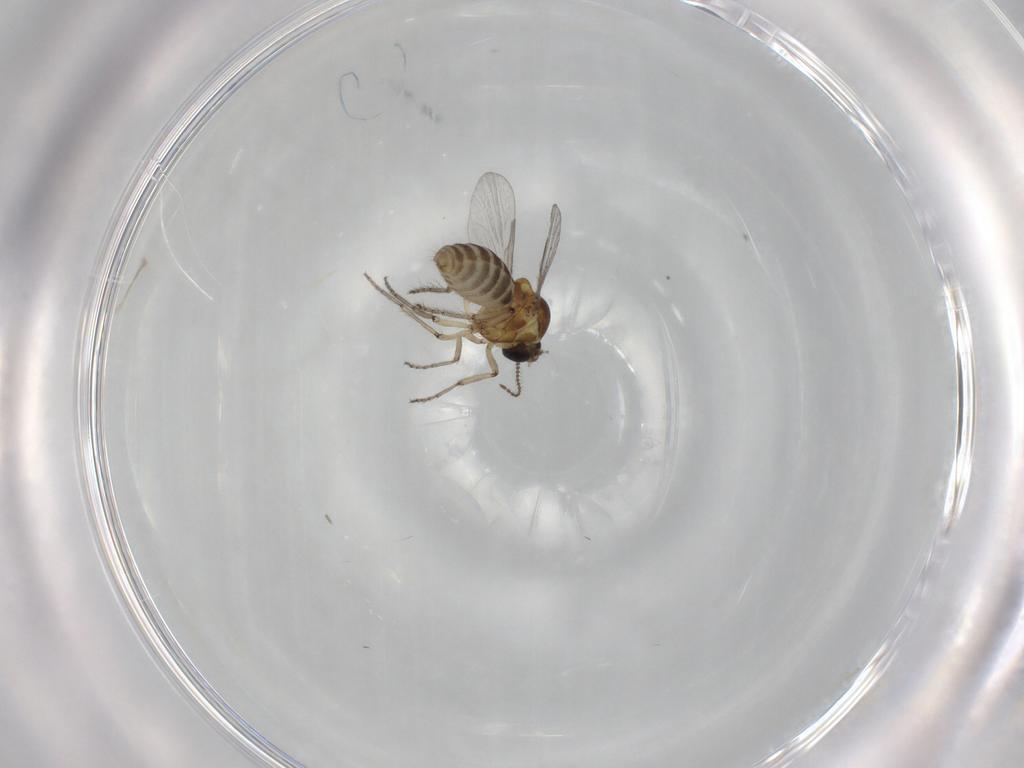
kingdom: Animalia
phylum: Arthropoda
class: Insecta
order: Diptera
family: Ceratopogonidae
